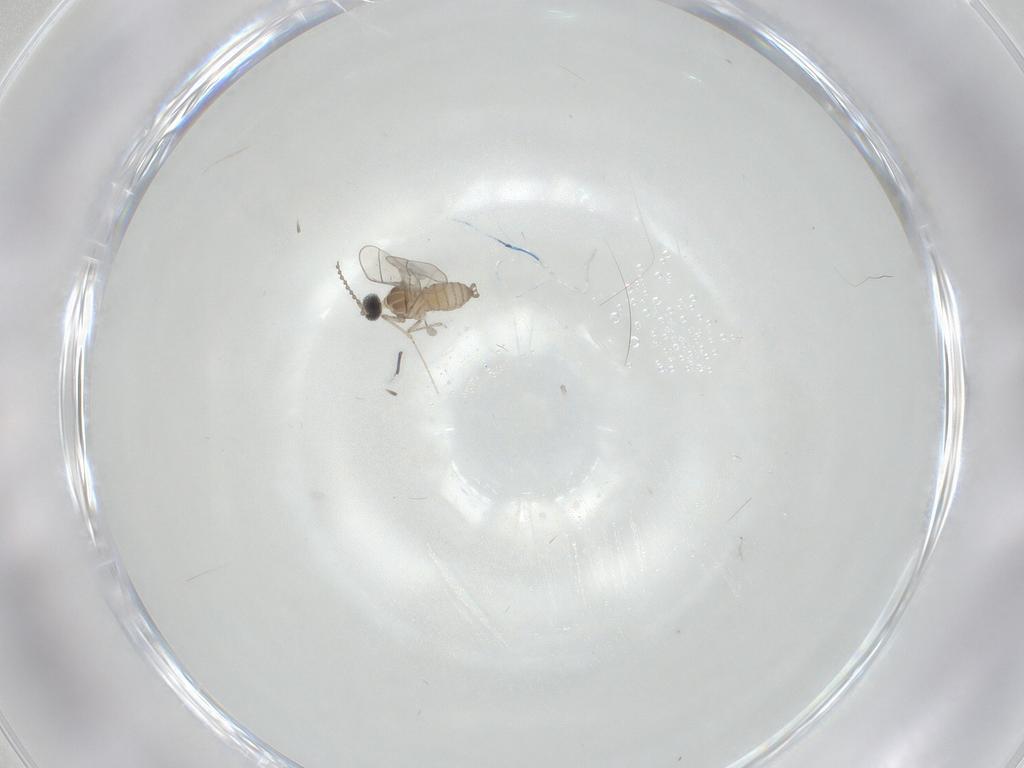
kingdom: Animalia
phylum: Arthropoda
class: Insecta
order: Diptera
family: Cecidomyiidae
